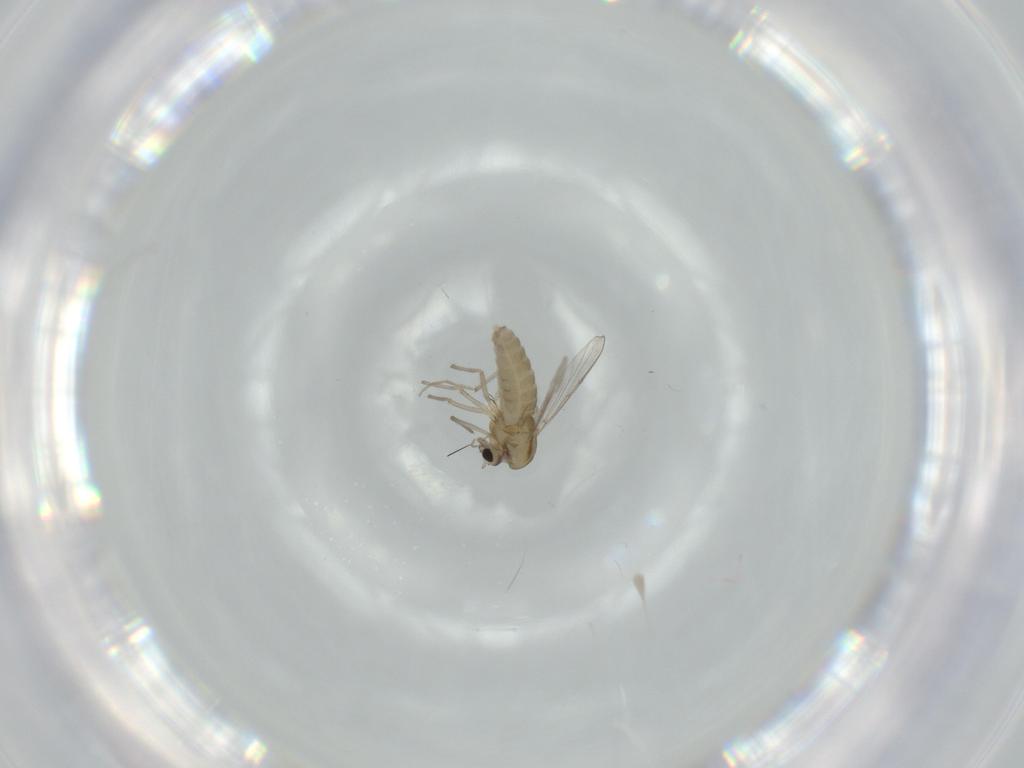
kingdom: Animalia
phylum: Arthropoda
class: Insecta
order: Diptera
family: Chironomidae
